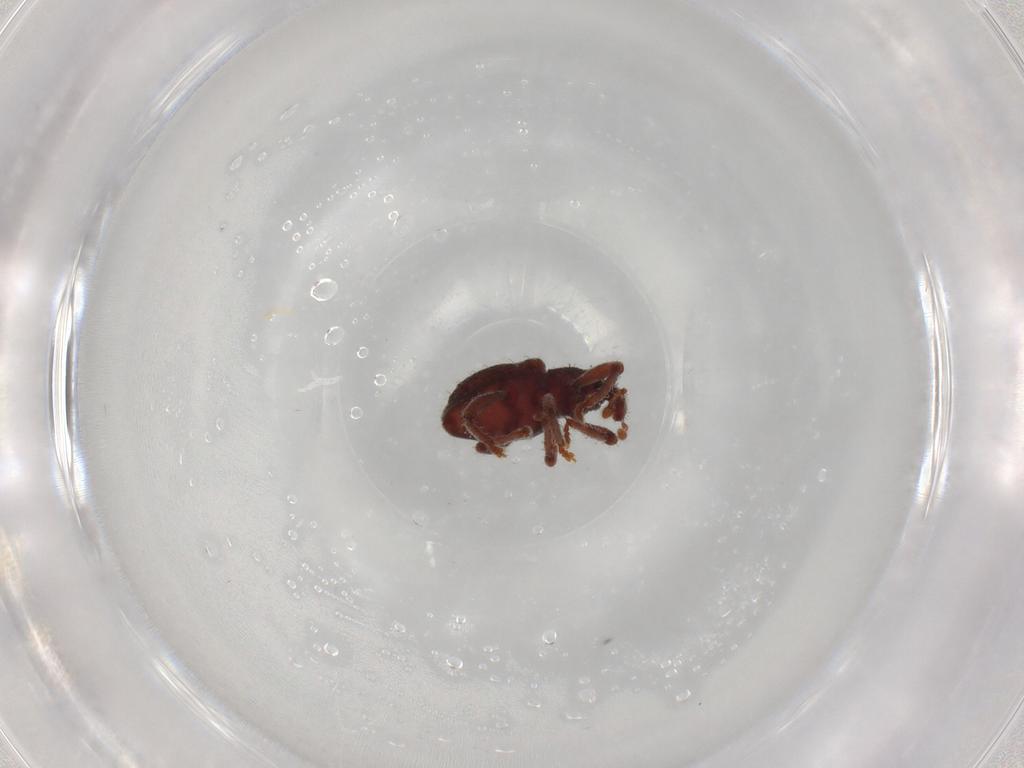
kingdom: Animalia
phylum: Arthropoda
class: Insecta
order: Coleoptera
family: Curculionidae
